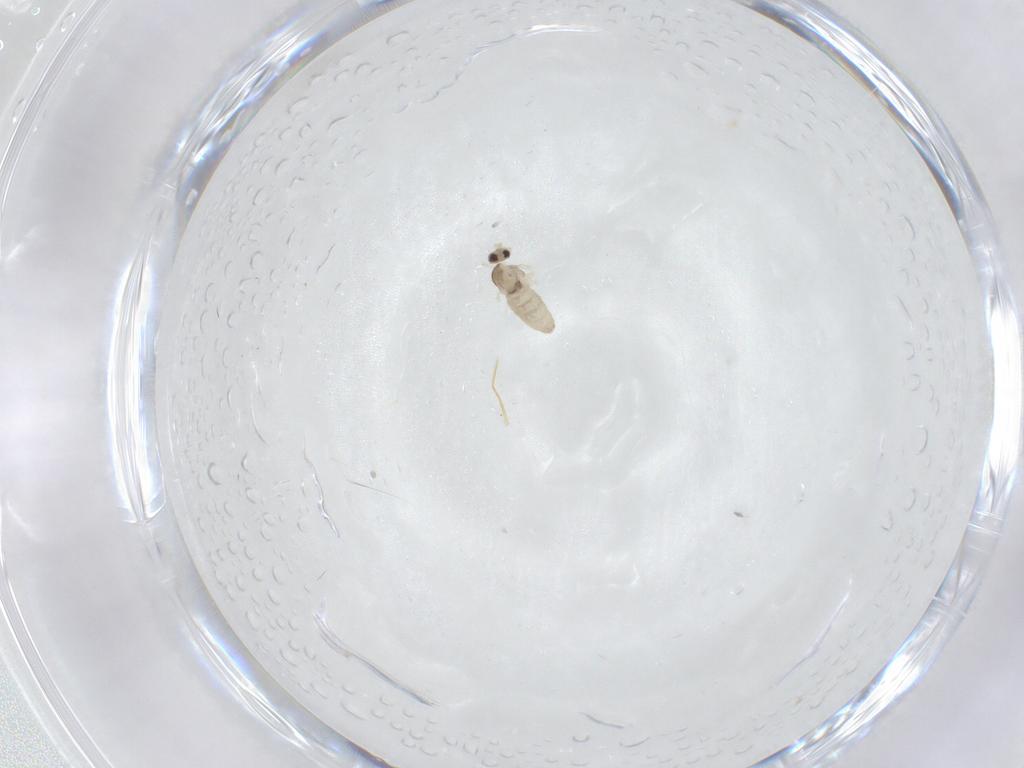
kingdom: Animalia
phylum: Arthropoda
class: Insecta
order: Diptera
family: Cecidomyiidae
